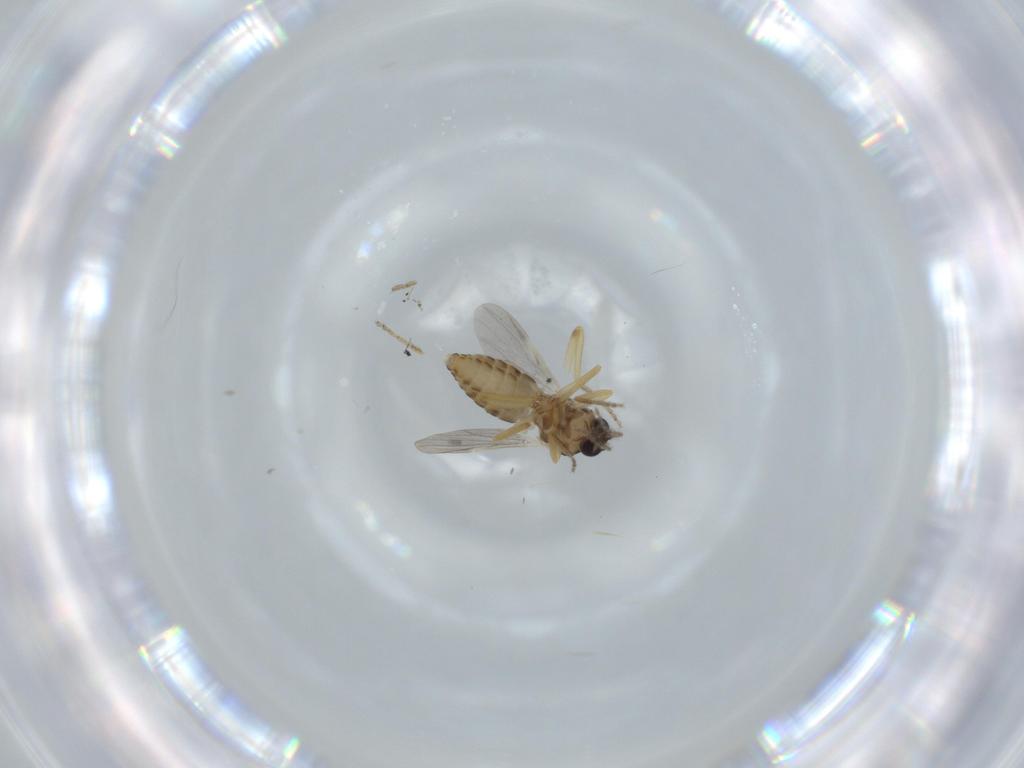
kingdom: Animalia
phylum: Arthropoda
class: Insecta
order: Diptera
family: Ceratopogonidae
